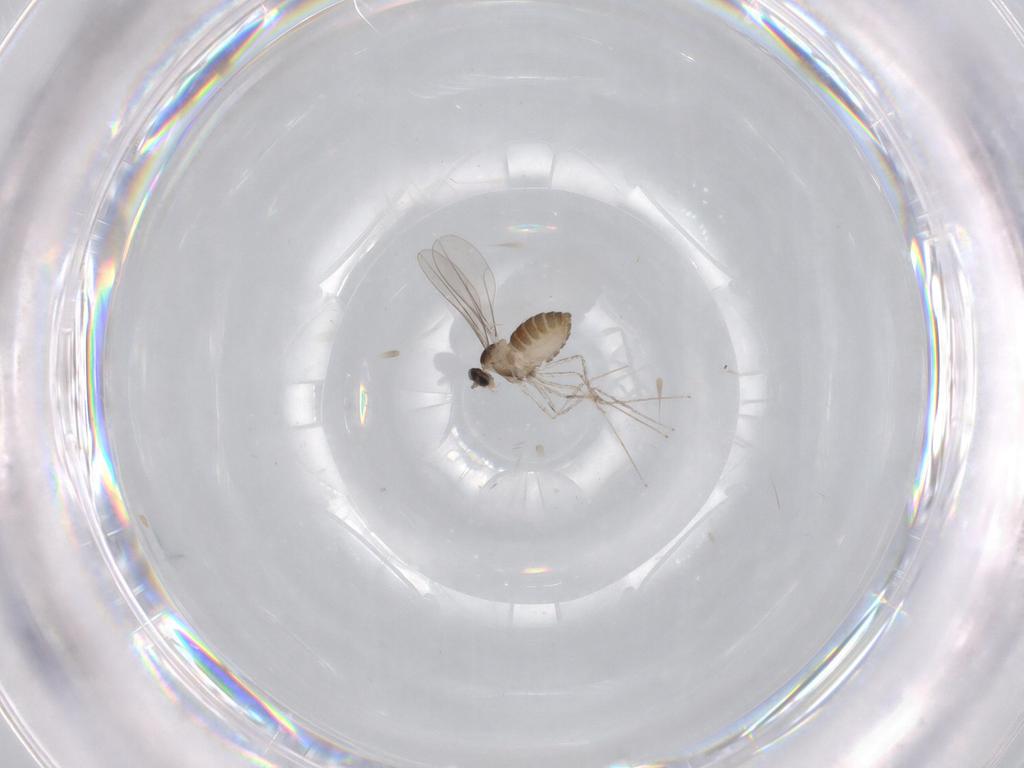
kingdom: Animalia
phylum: Arthropoda
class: Insecta
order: Diptera
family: Cecidomyiidae
